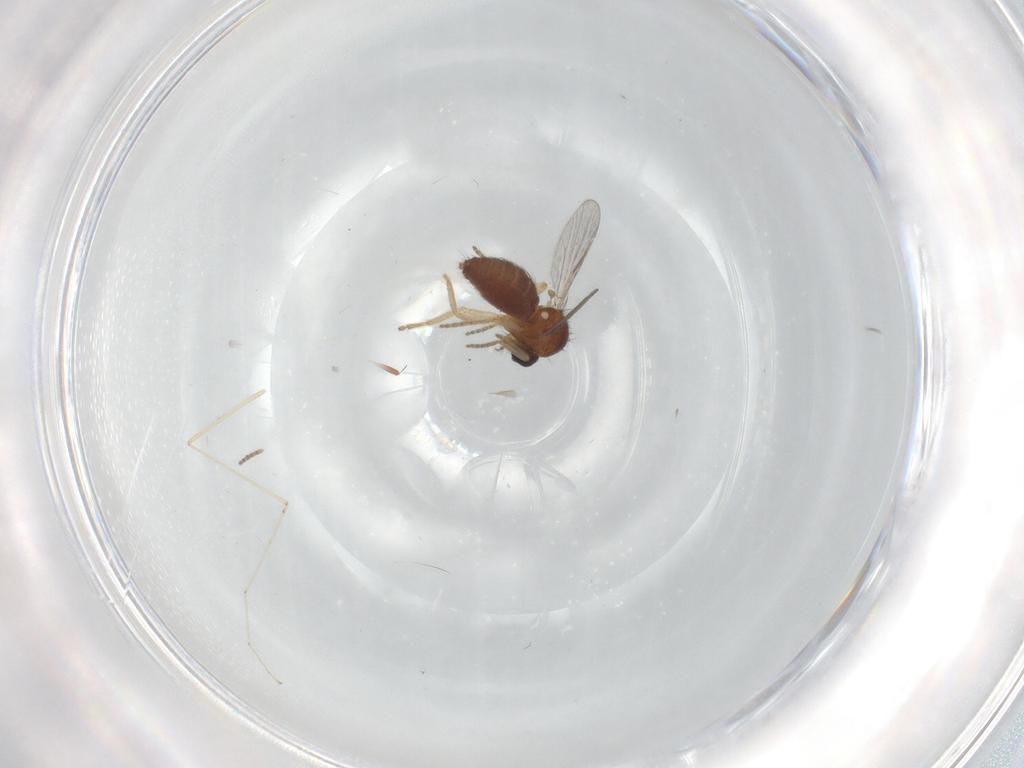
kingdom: Animalia
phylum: Arthropoda
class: Insecta
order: Diptera
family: Ceratopogonidae
